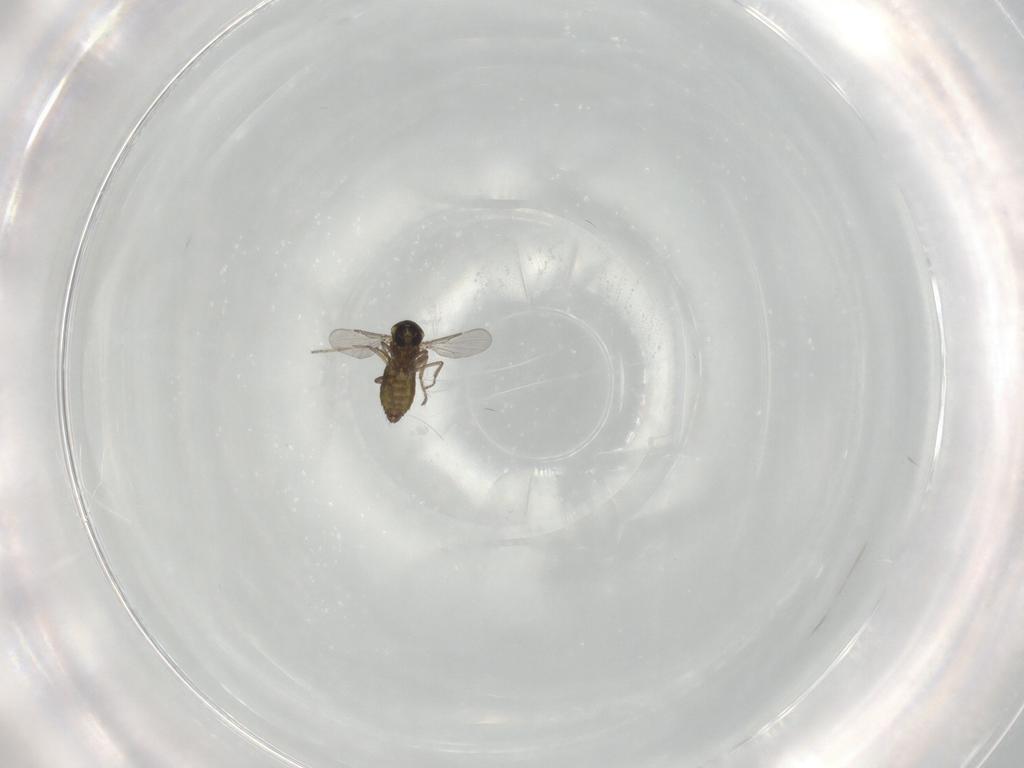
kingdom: Animalia
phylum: Arthropoda
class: Insecta
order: Diptera
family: Ceratopogonidae
